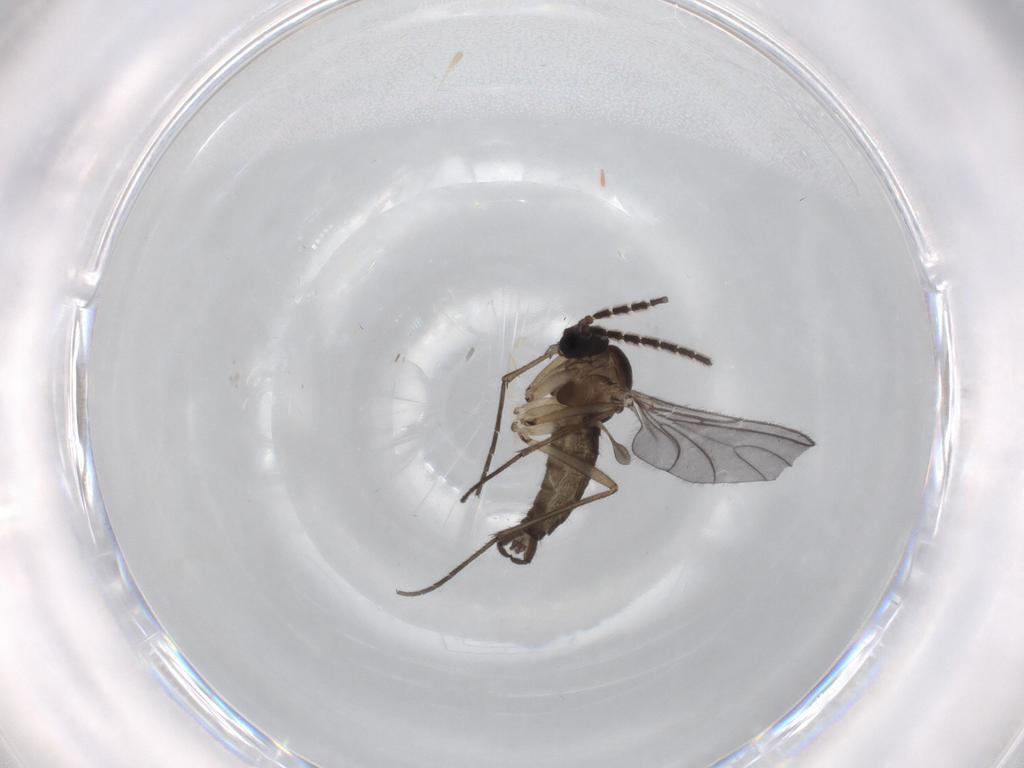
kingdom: Animalia
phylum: Arthropoda
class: Insecta
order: Diptera
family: Sciaridae
